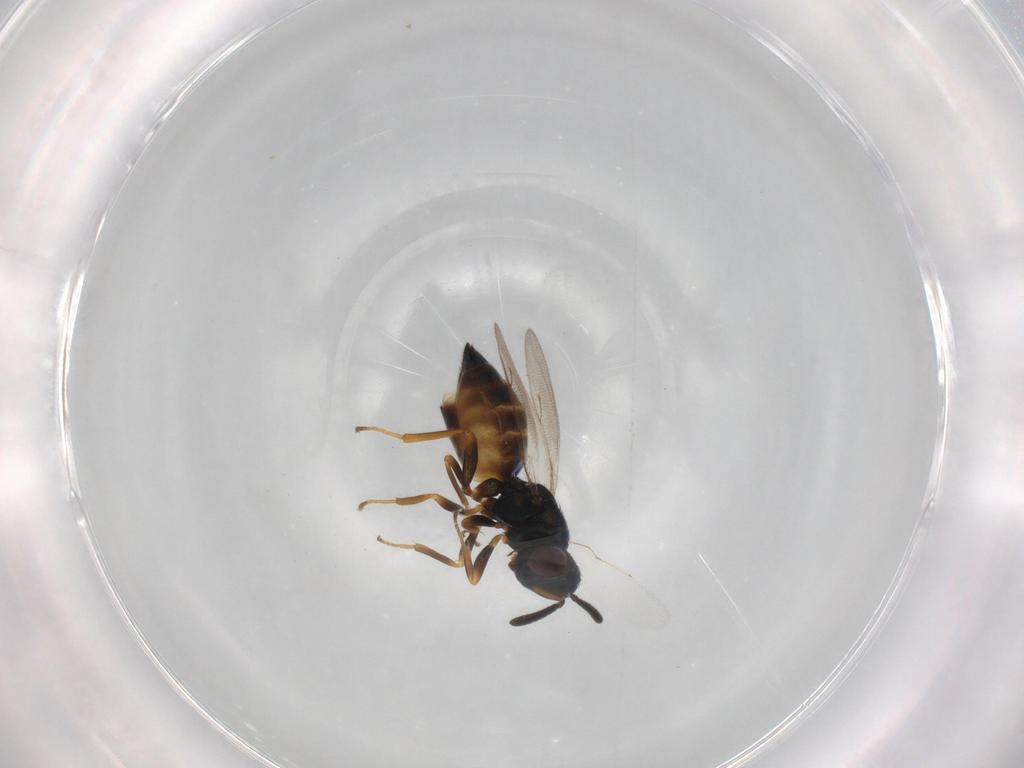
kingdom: Animalia
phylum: Arthropoda
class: Insecta
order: Hymenoptera
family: Pteromalidae
